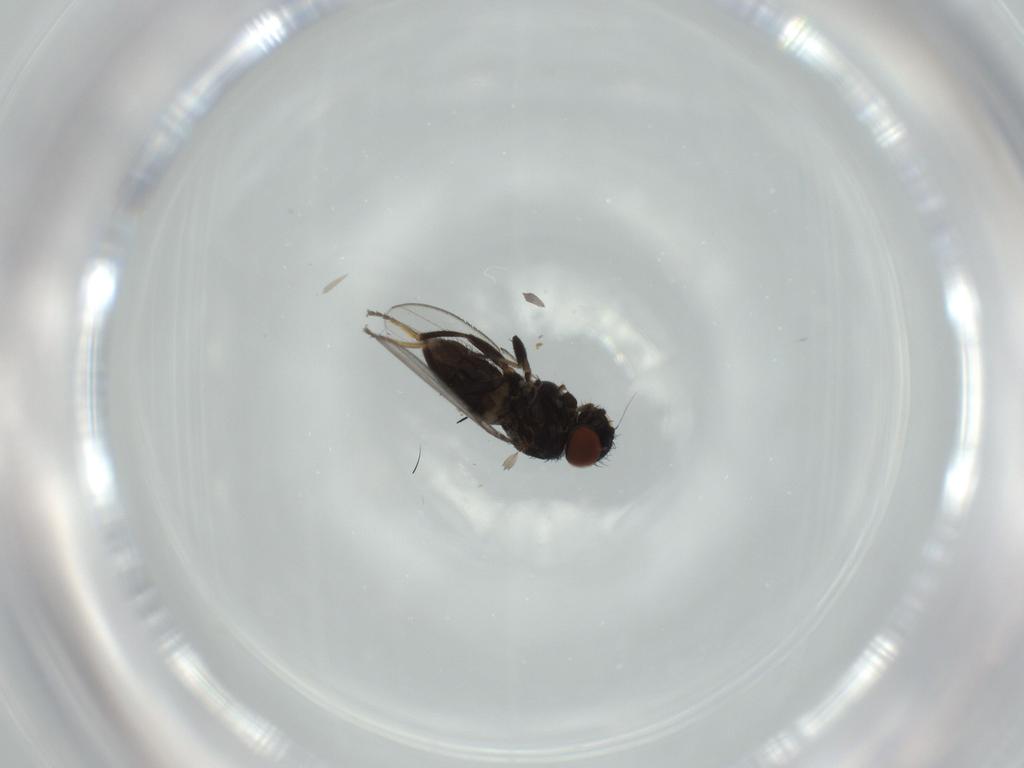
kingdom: Animalia
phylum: Arthropoda
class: Insecta
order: Diptera
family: Milichiidae
